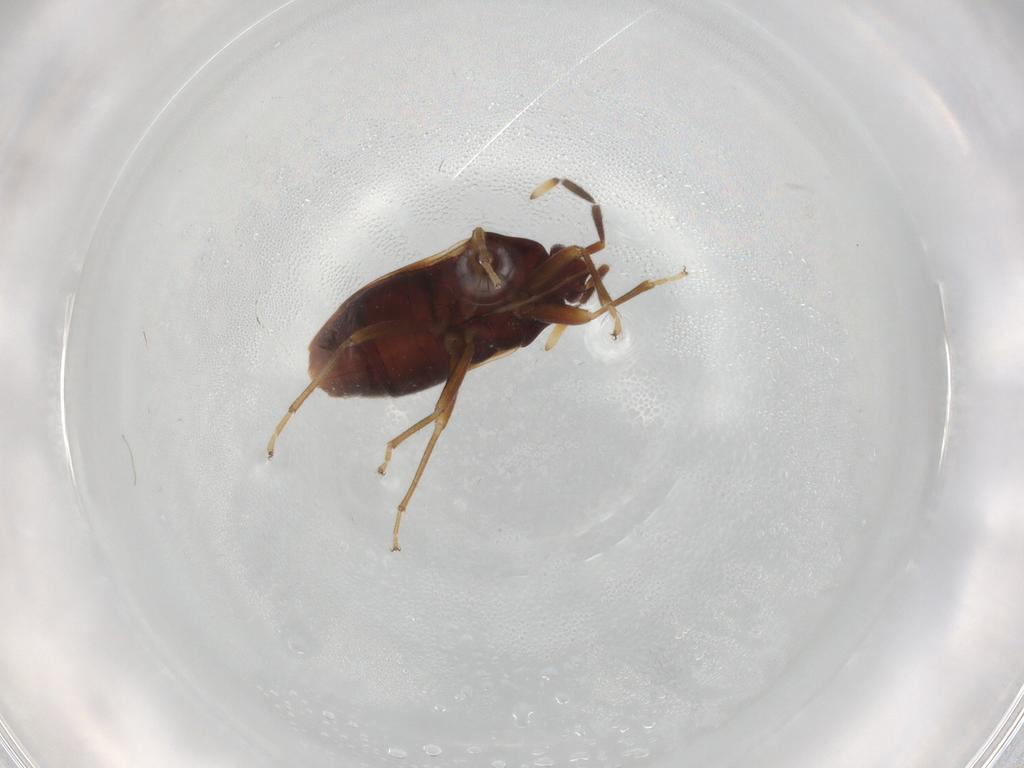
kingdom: Animalia
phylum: Arthropoda
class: Insecta
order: Hemiptera
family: Rhyparochromidae
